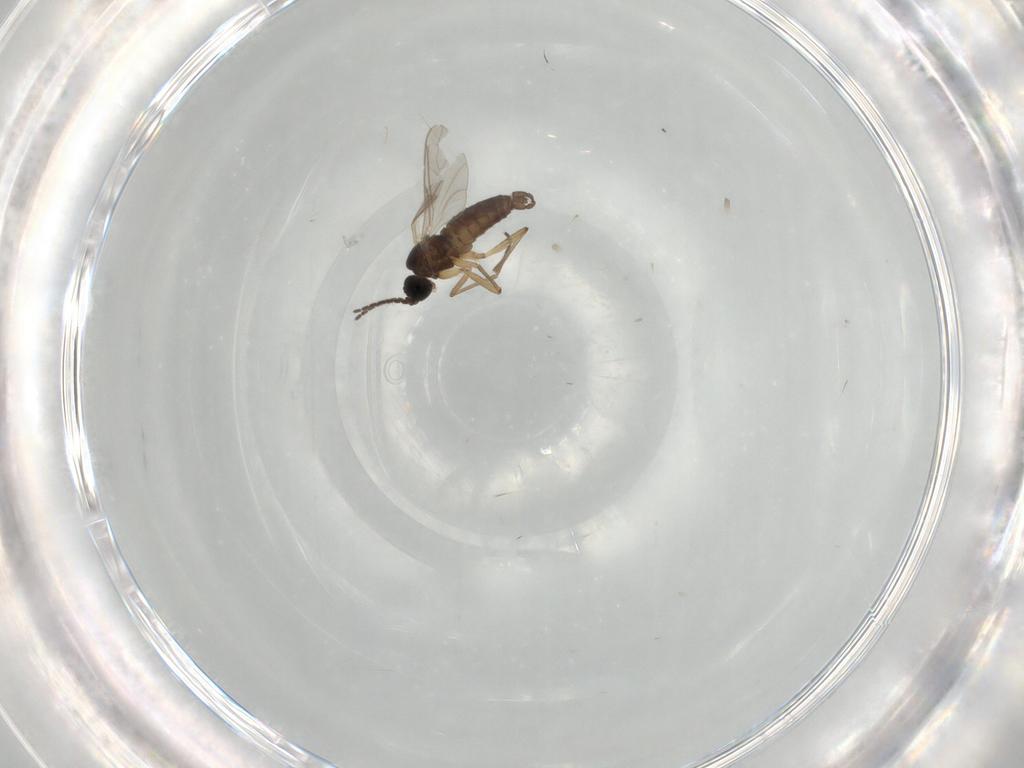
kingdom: Animalia
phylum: Arthropoda
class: Insecta
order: Diptera
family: Sciaridae
